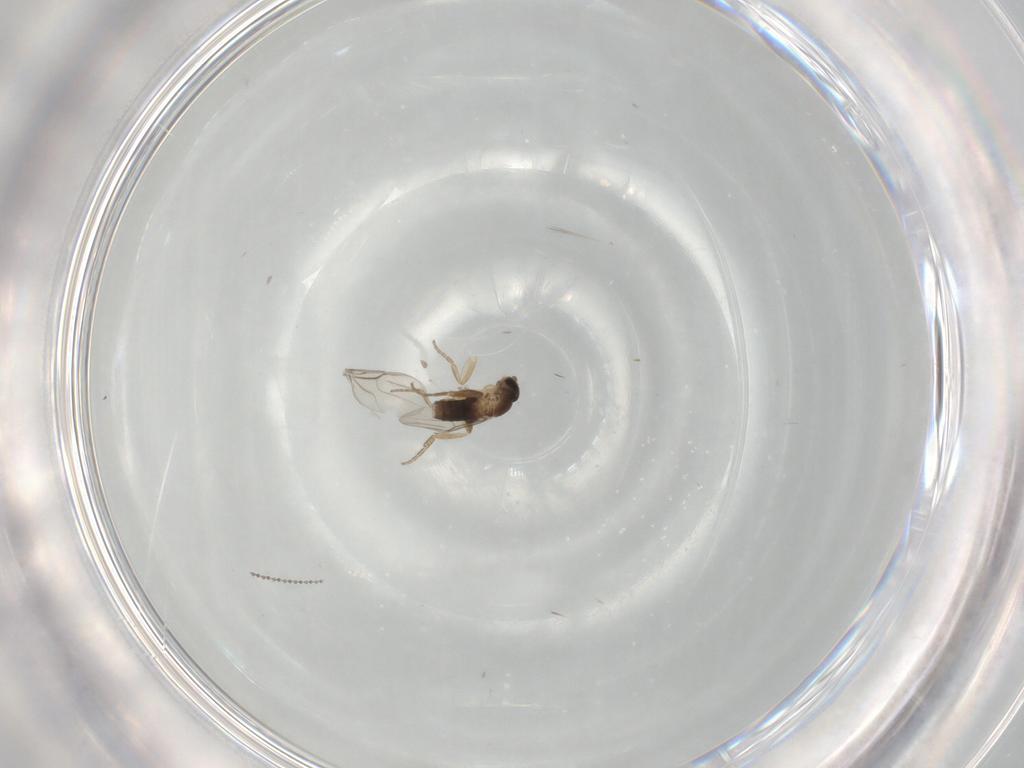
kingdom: Animalia
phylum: Arthropoda
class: Insecta
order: Diptera
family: Phoridae
